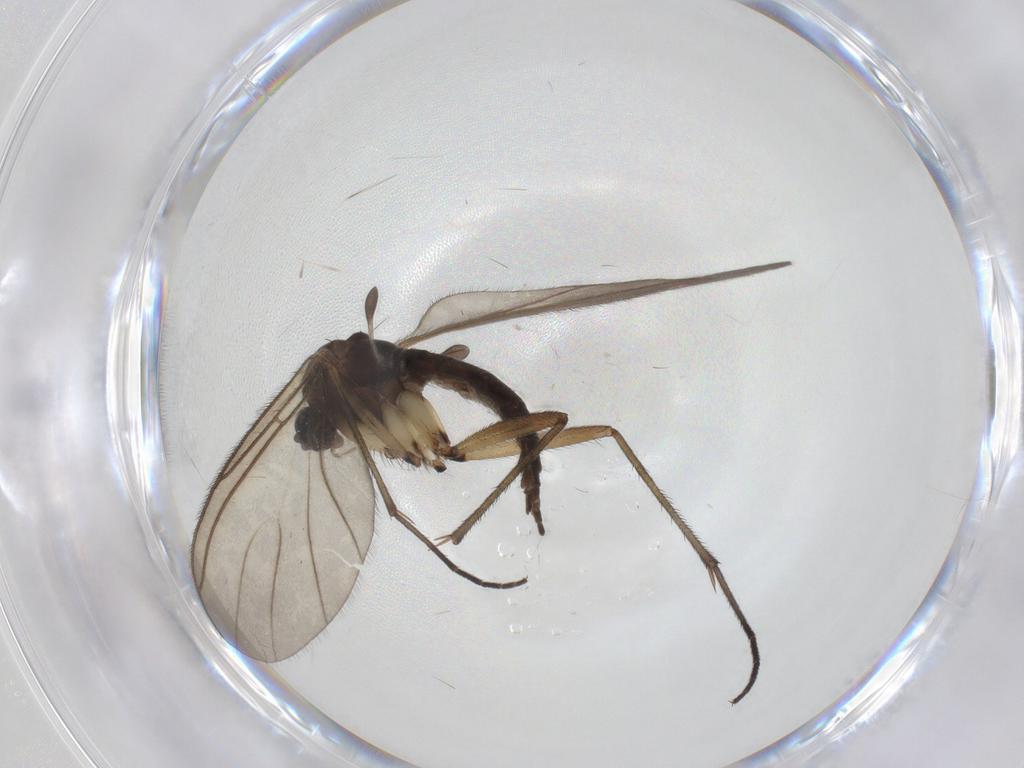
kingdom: Animalia
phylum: Arthropoda
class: Insecta
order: Diptera
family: Sciaridae
